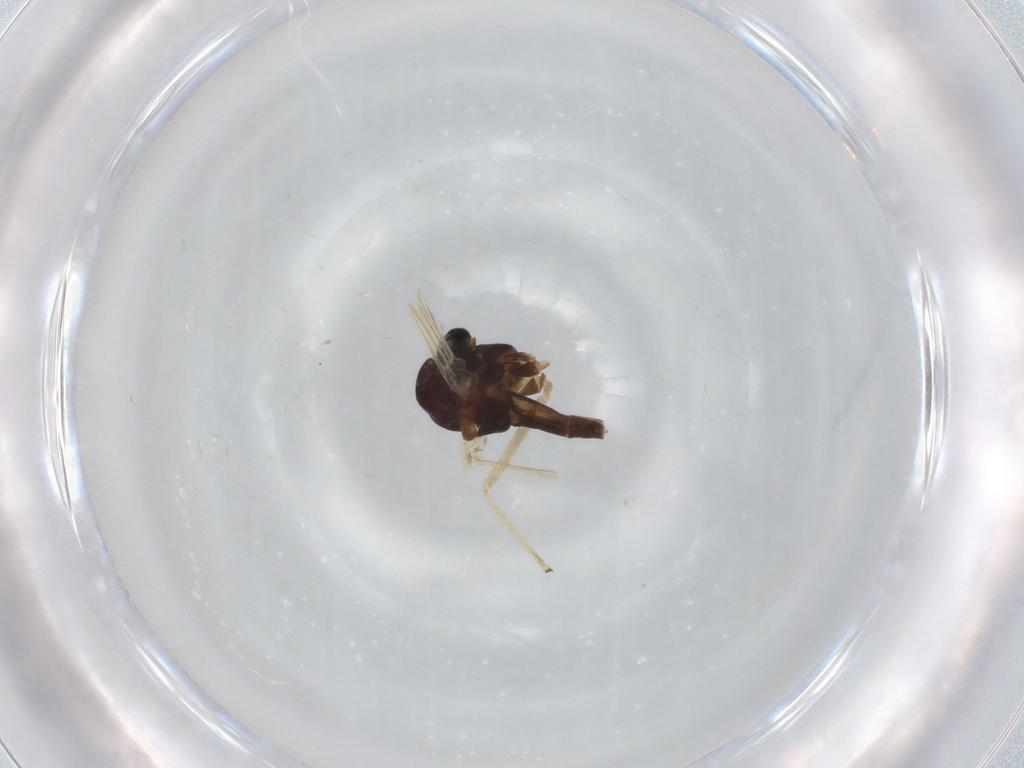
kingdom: Animalia
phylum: Arthropoda
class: Insecta
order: Diptera
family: Chironomidae
